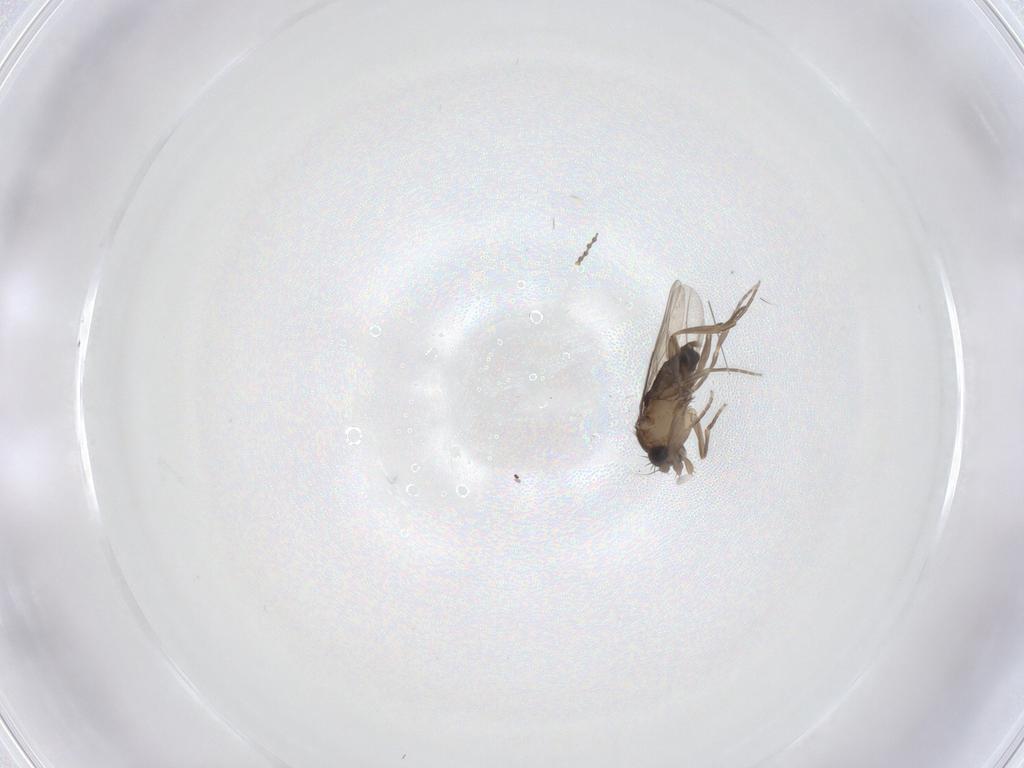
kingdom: Animalia
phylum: Arthropoda
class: Insecta
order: Diptera
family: Phoridae
